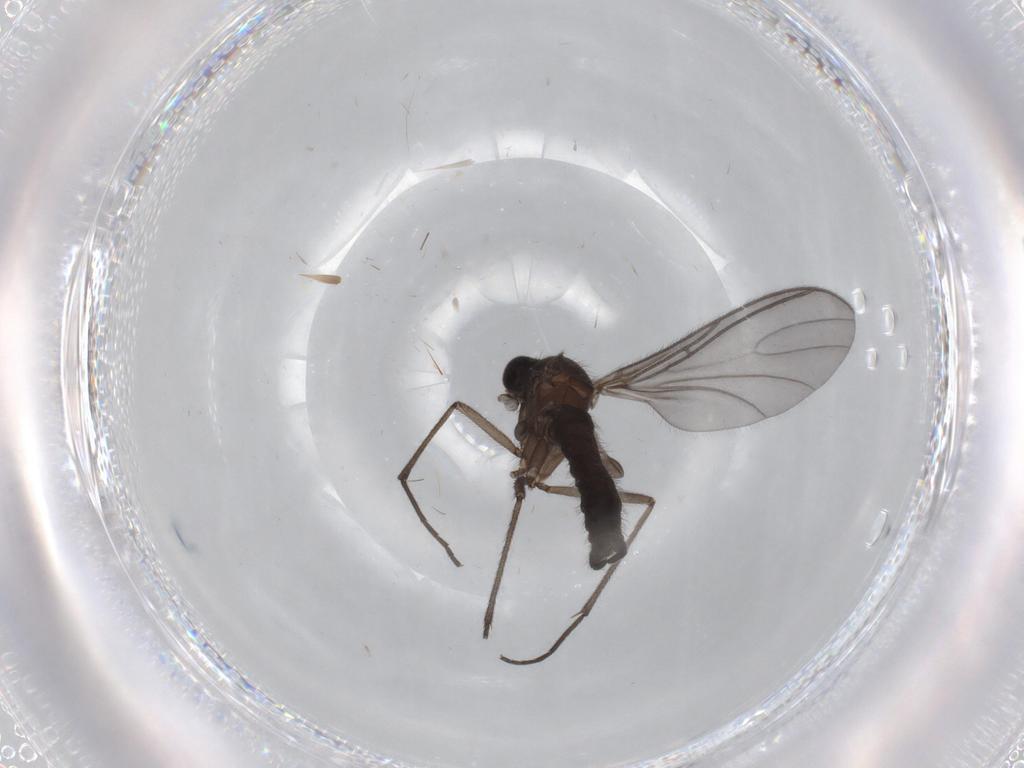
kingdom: Animalia
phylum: Arthropoda
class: Insecta
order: Diptera
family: Sciaridae
